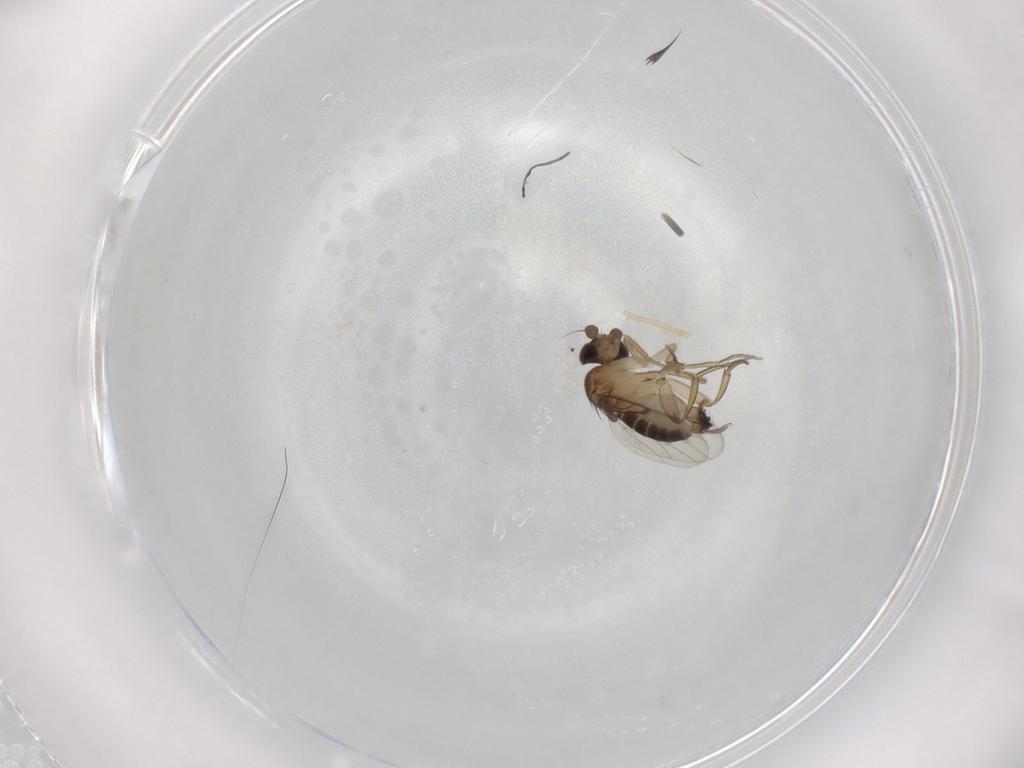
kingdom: Animalia
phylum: Arthropoda
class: Insecta
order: Diptera
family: Phoridae
